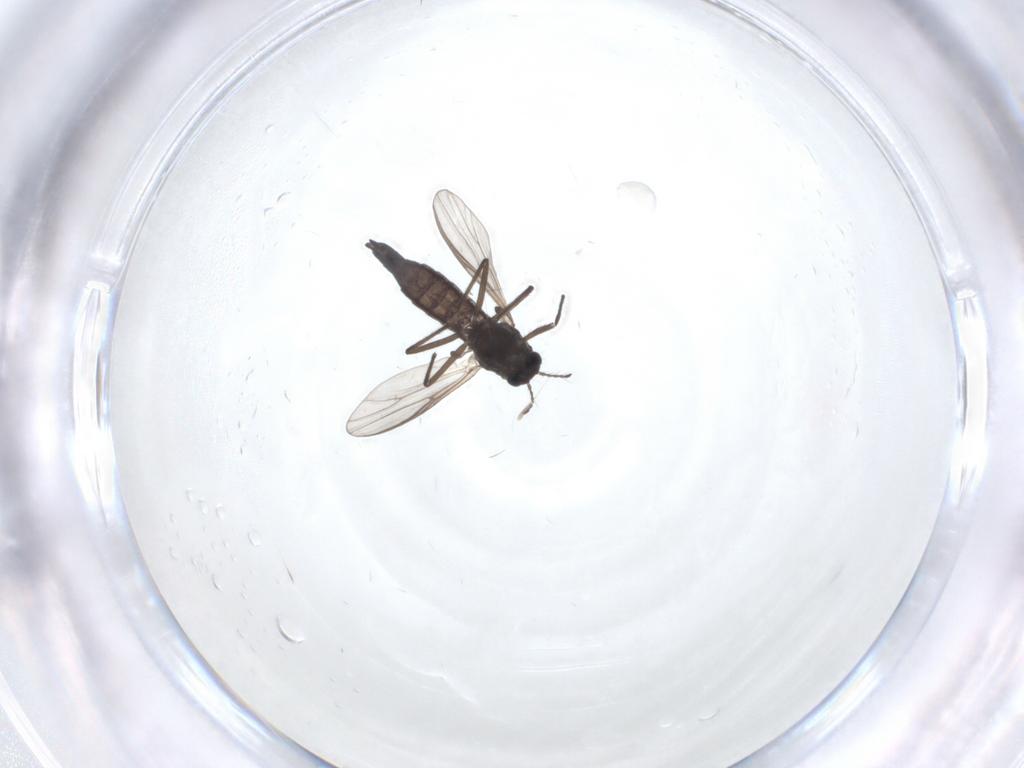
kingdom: Animalia
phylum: Arthropoda
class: Insecta
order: Diptera
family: Chironomidae
